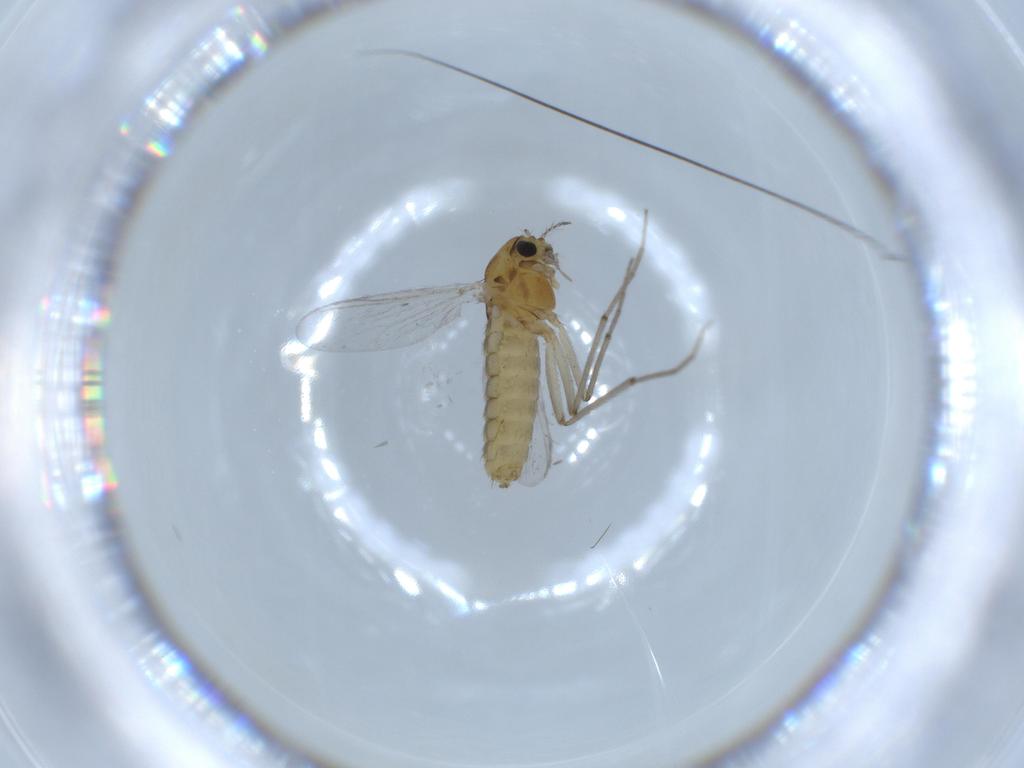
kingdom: Animalia
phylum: Arthropoda
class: Insecta
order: Diptera
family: Chironomidae
